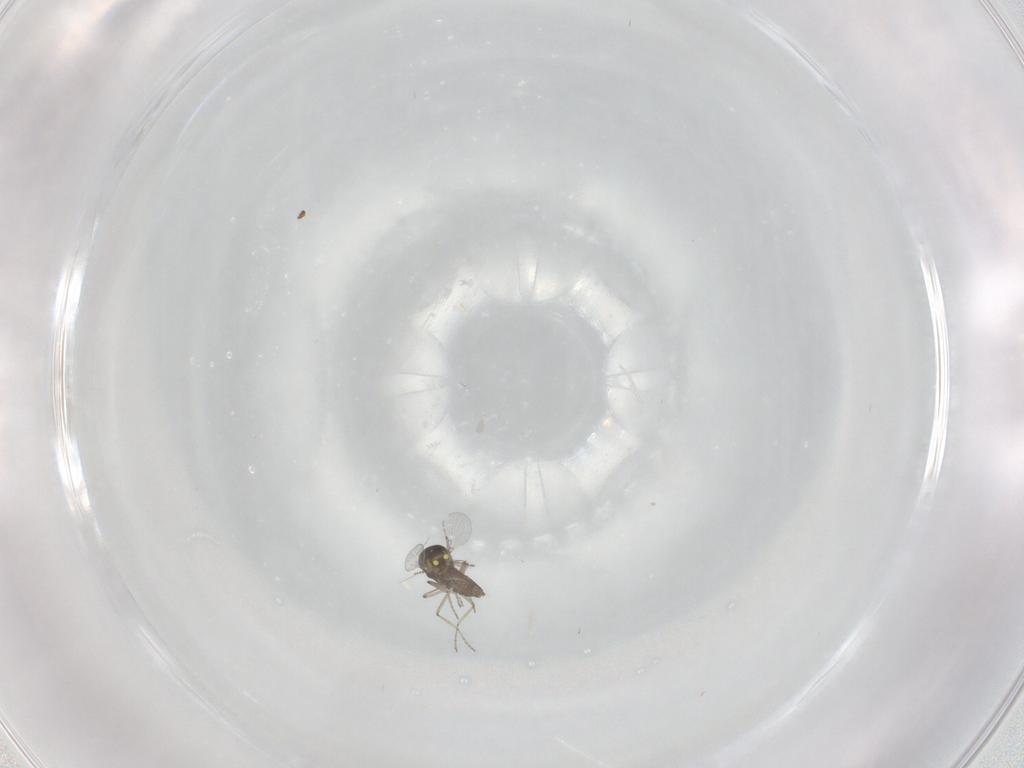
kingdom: Animalia
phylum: Arthropoda
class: Insecta
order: Diptera
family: Ceratopogonidae
